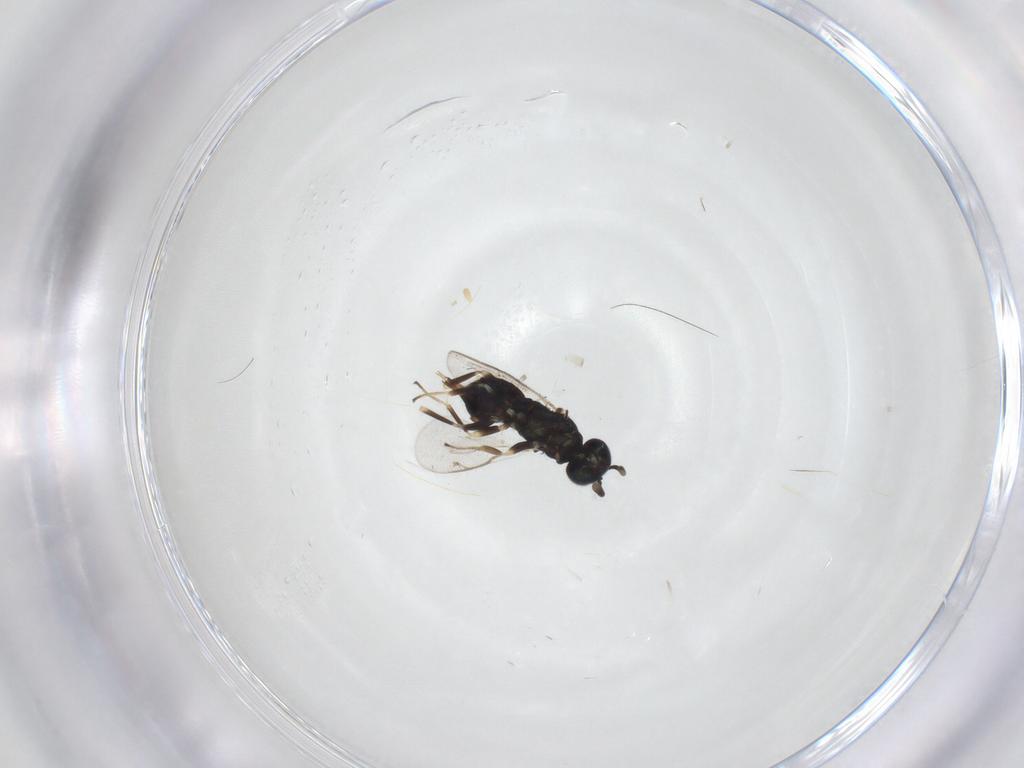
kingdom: Animalia
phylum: Arthropoda
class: Insecta
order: Hymenoptera
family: Eupelmidae
